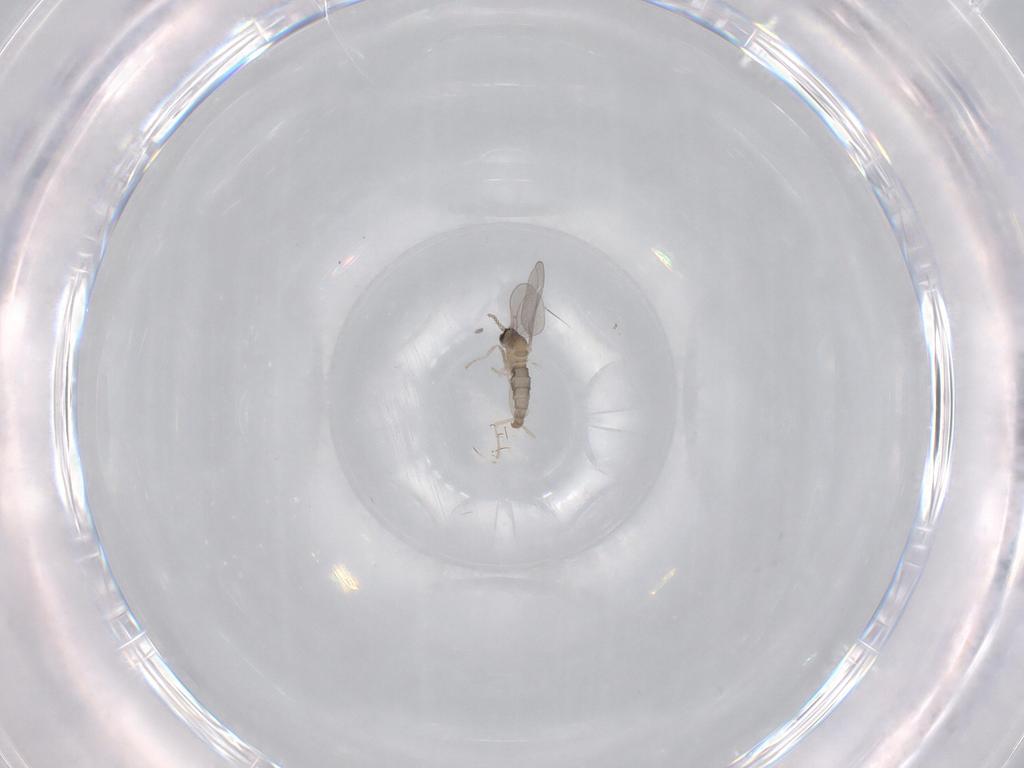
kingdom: Animalia
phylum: Arthropoda
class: Insecta
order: Diptera
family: Cecidomyiidae
